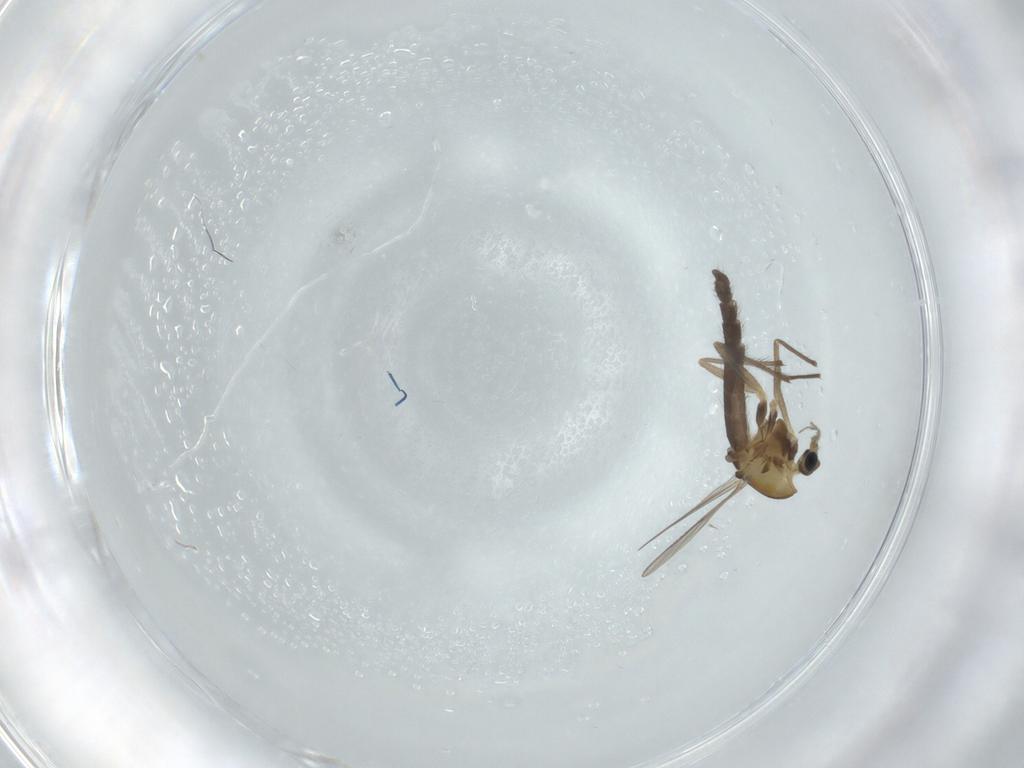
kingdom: Animalia
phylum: Arthropoda
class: Insecta
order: Diptera
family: Chironomidae
